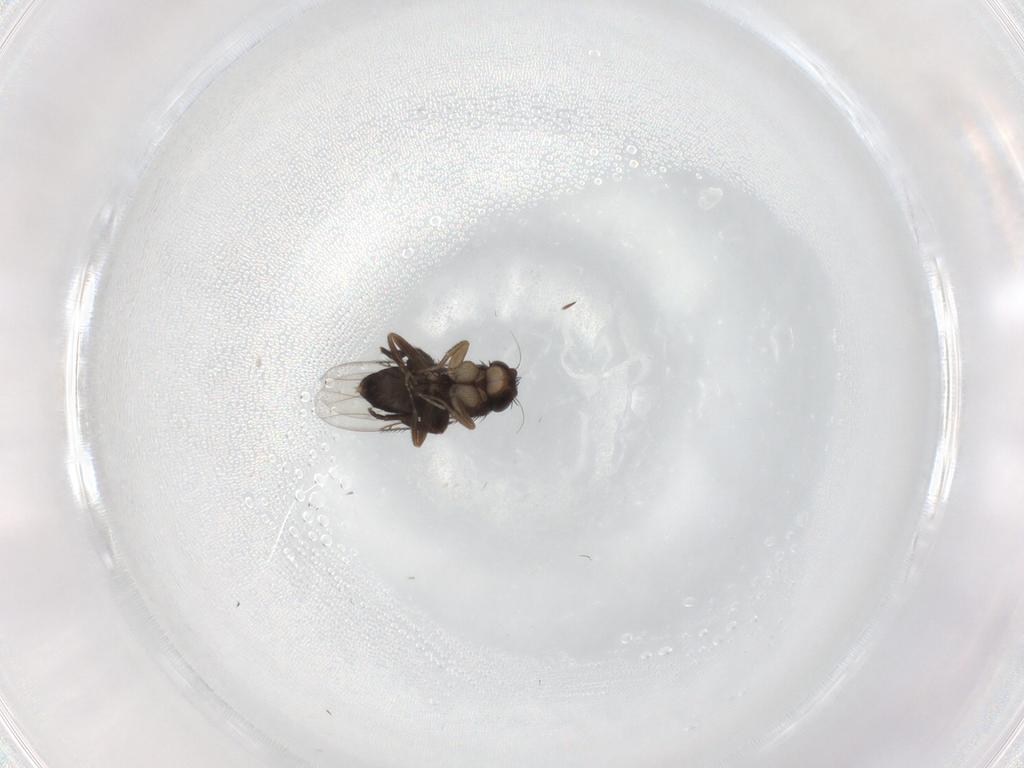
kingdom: Animalia
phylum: Arthropoda
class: Insecta
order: Diptera
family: Phoridae
